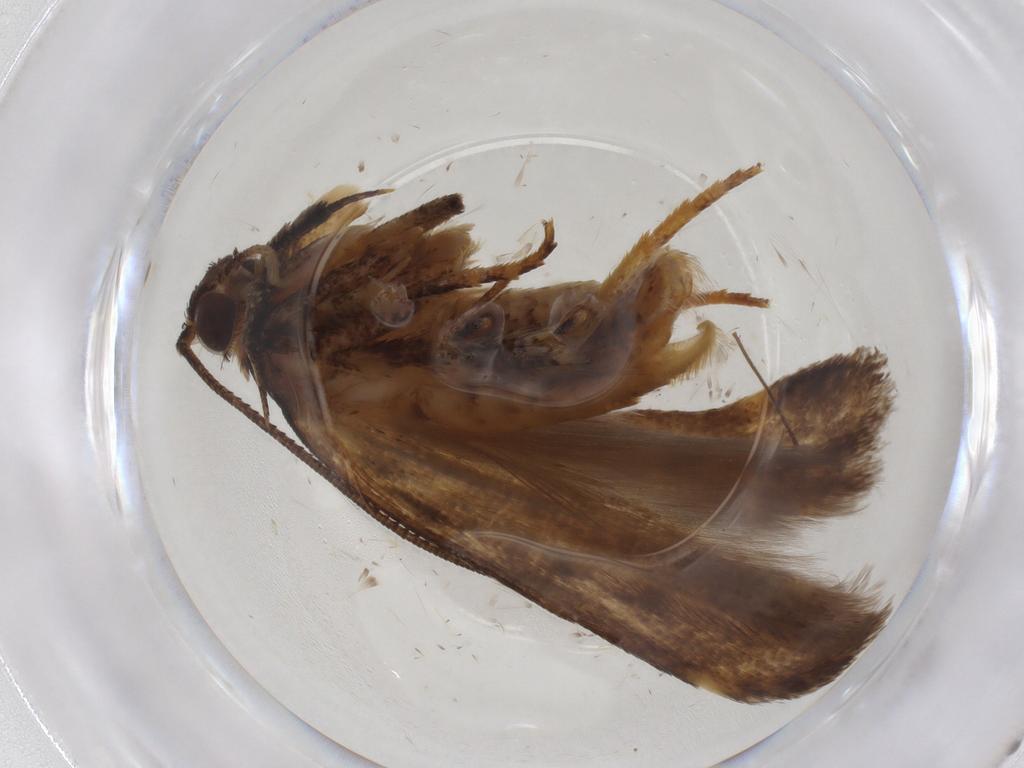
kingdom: Animalia
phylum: Arthropoda
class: Insecta
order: Lepidoptera
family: Gelechiidae
